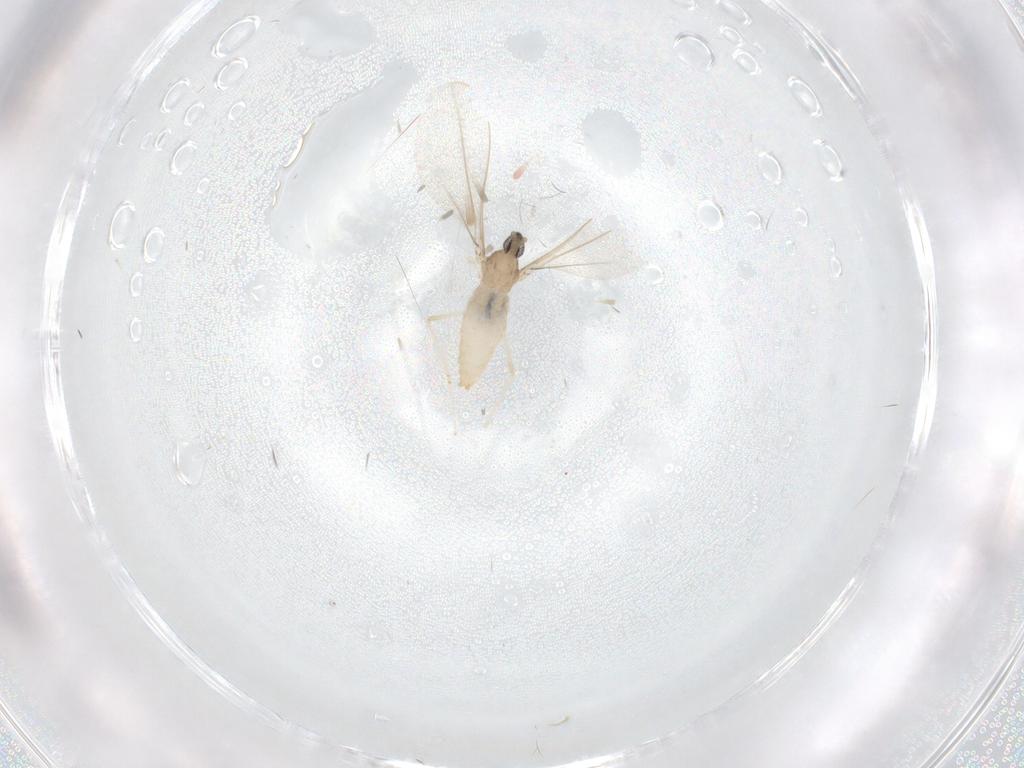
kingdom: Animalia
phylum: Arthropoda
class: Insecta
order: Diptera
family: Cecidomyiidae
